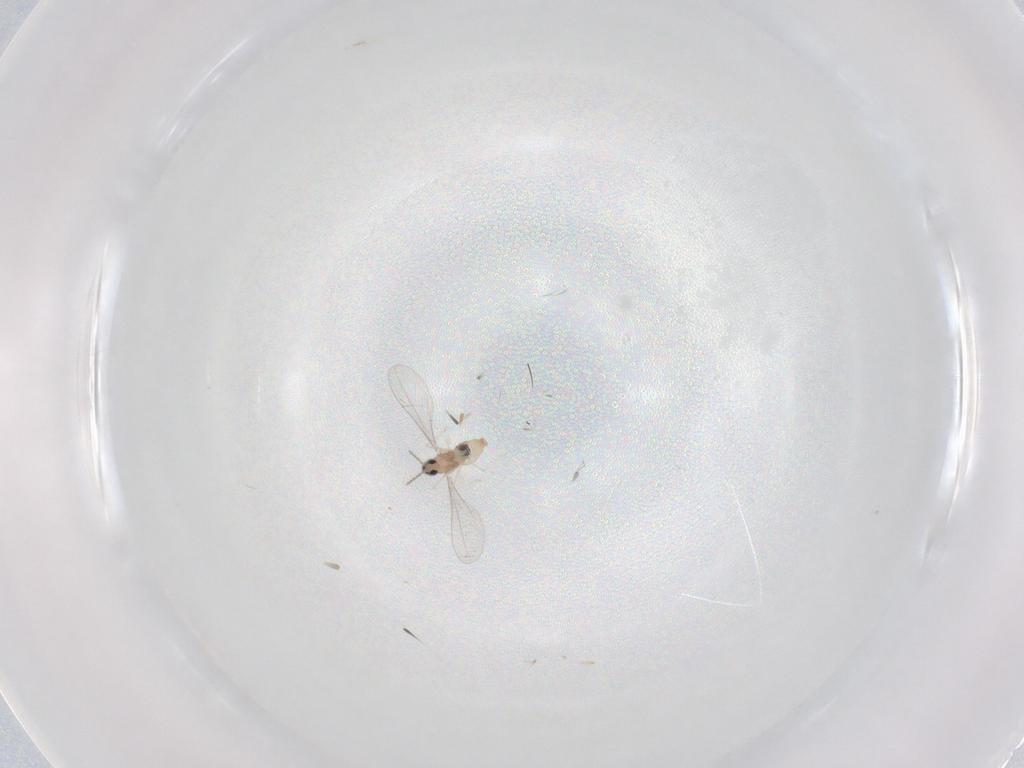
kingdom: Animalia
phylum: Arthropoda
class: Insecta
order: Diptera
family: Cecidomyiidae
